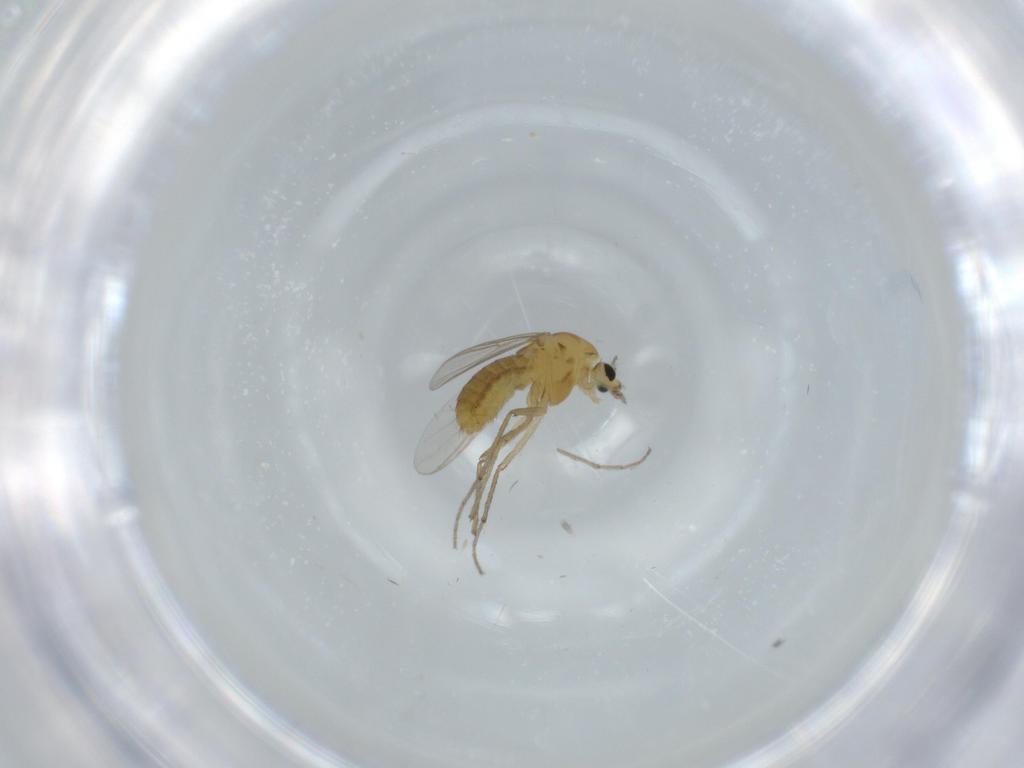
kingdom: Animalia
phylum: Arthropoda
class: Insecta
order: Diptera
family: Chironomidae
